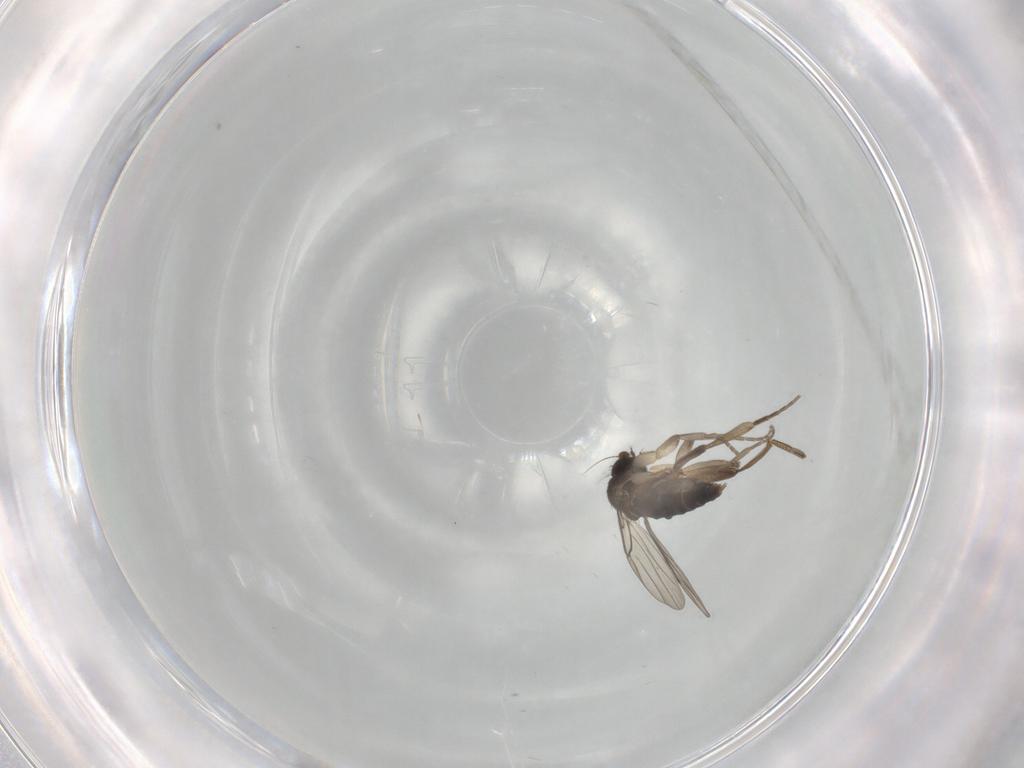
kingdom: Animalia
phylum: Arthropoda
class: Insecta
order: Diptera
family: Phoridae
